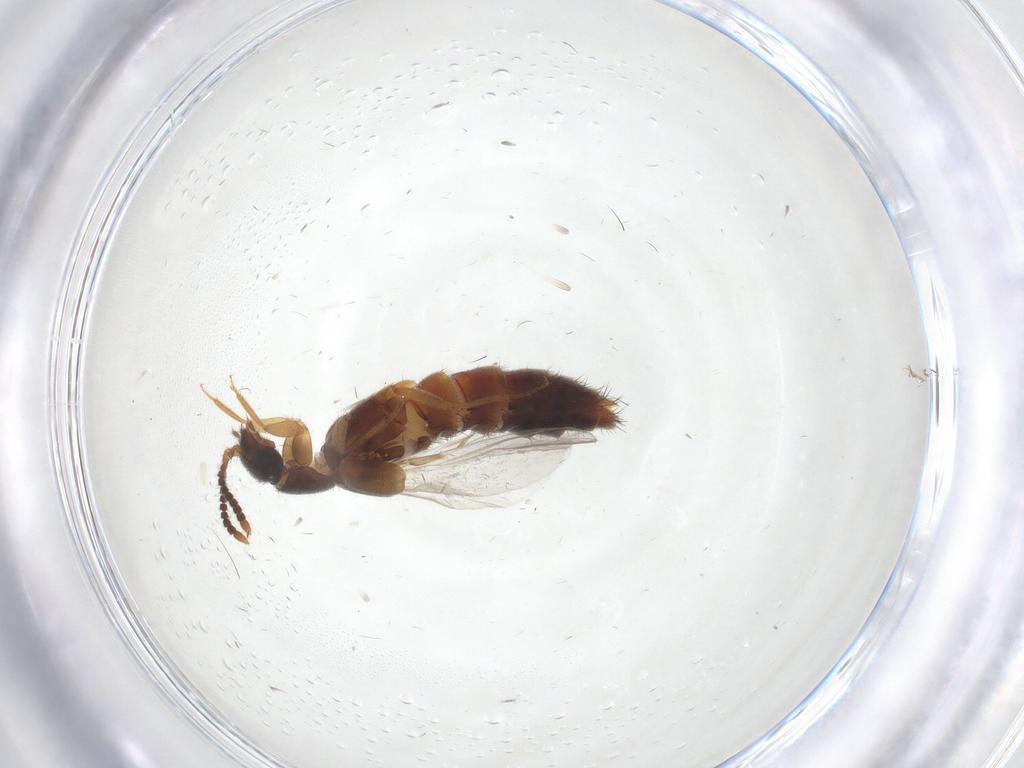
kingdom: Animalia
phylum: Arthropoda
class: Insecta
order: Coleoptera
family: Staphylinidae
